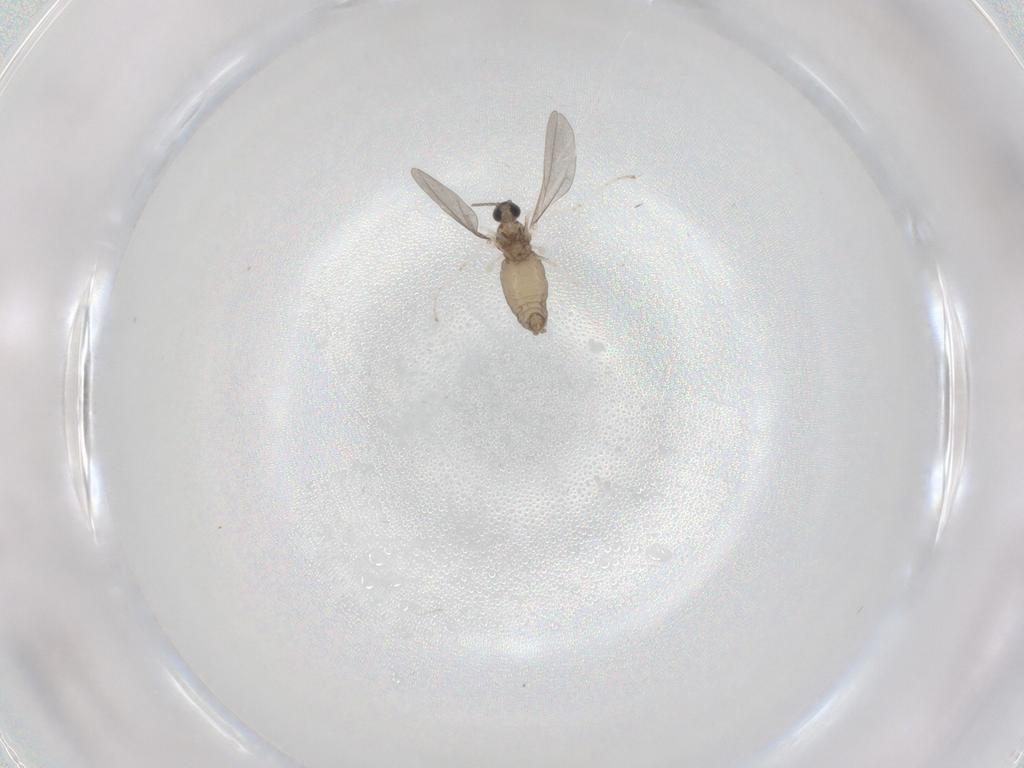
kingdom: Animalia
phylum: Arthropoda
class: Insecta
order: Diptera
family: Cecidomyiidae
